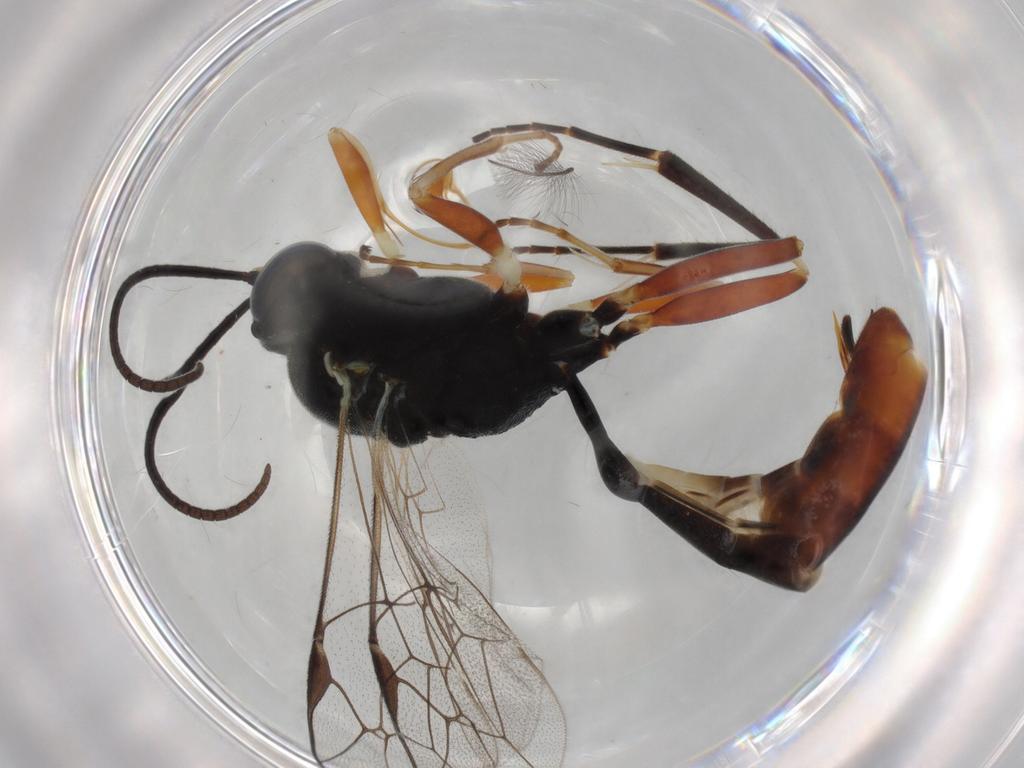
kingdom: Animalia
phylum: Arthropoda
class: Insecta
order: Hymenoptera
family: Ichneumonidae
